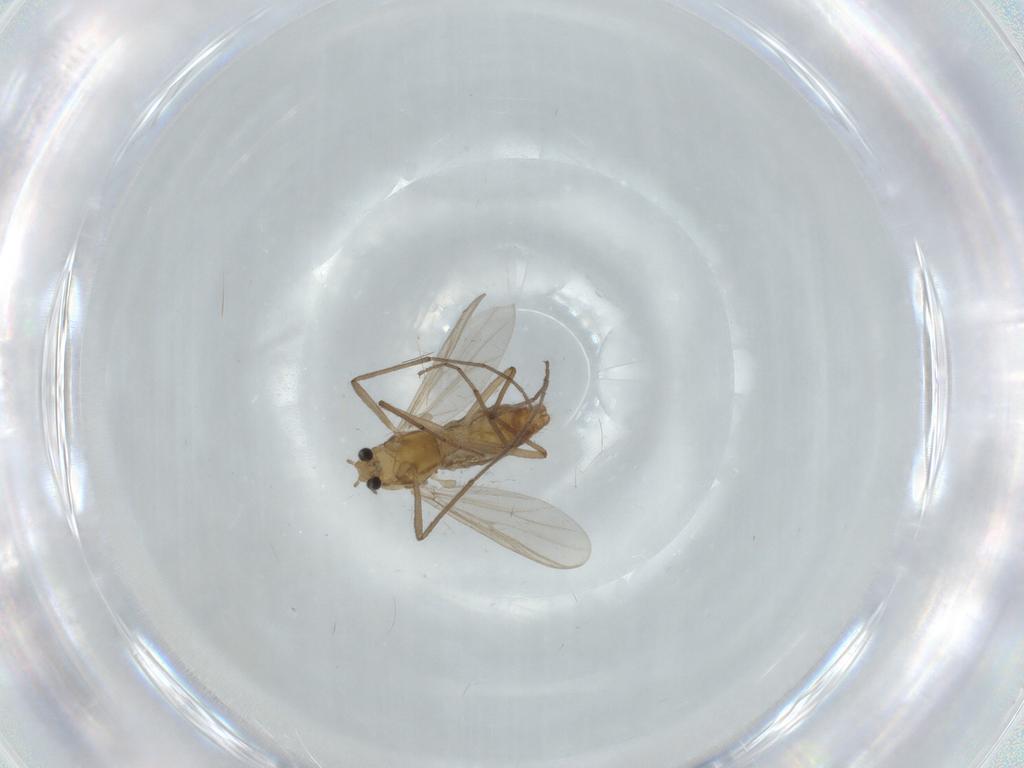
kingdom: Animalia
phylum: Arthropoda
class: Insecta
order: Diptera
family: Chironomidae
